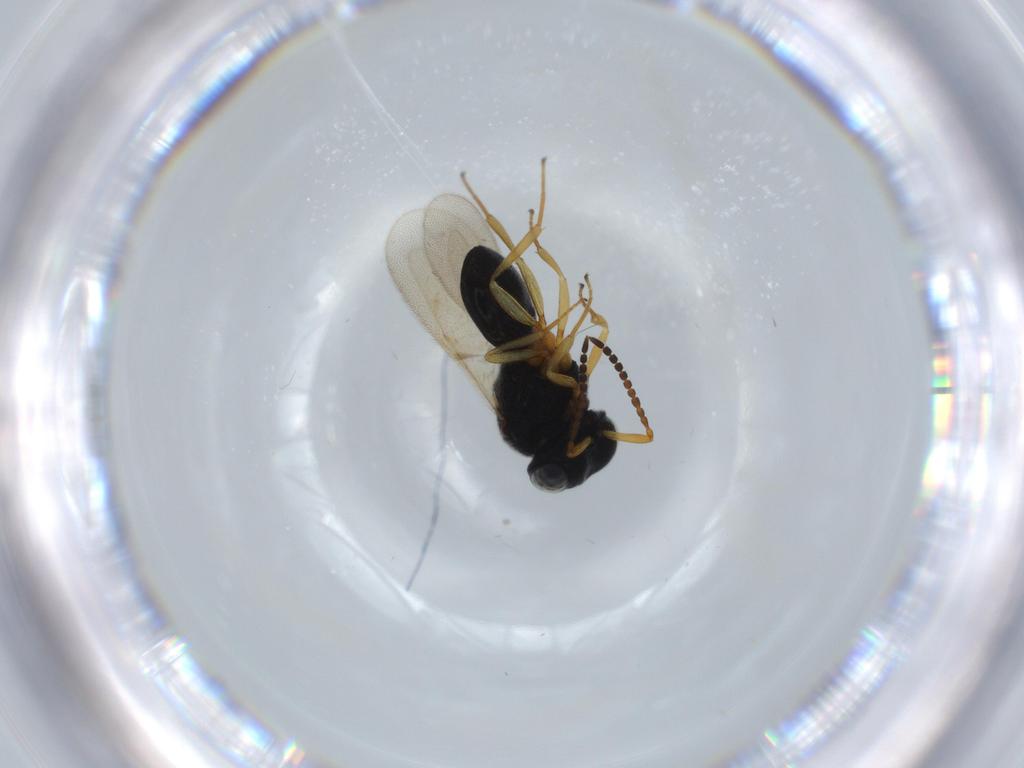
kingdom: Animalia
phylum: Arthropoda
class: Insecta
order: Hymenoptera
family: Scelionidae
